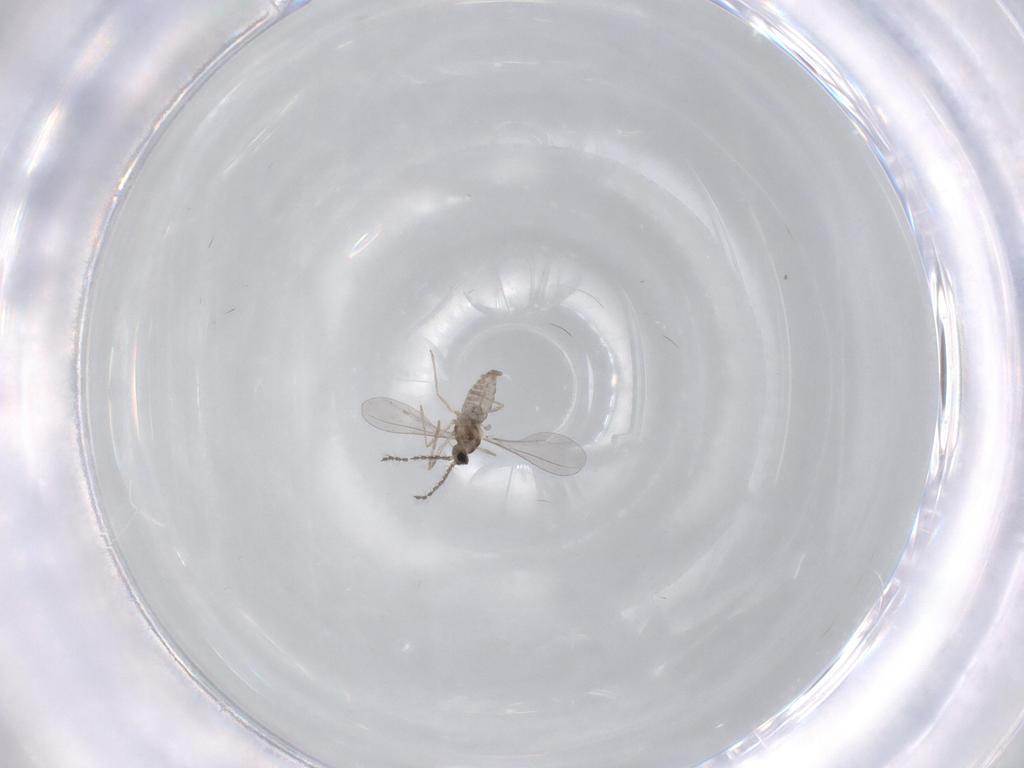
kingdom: Animalia
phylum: Arthropoda
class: Insecta
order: Diptera
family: Cecidomyiidae
